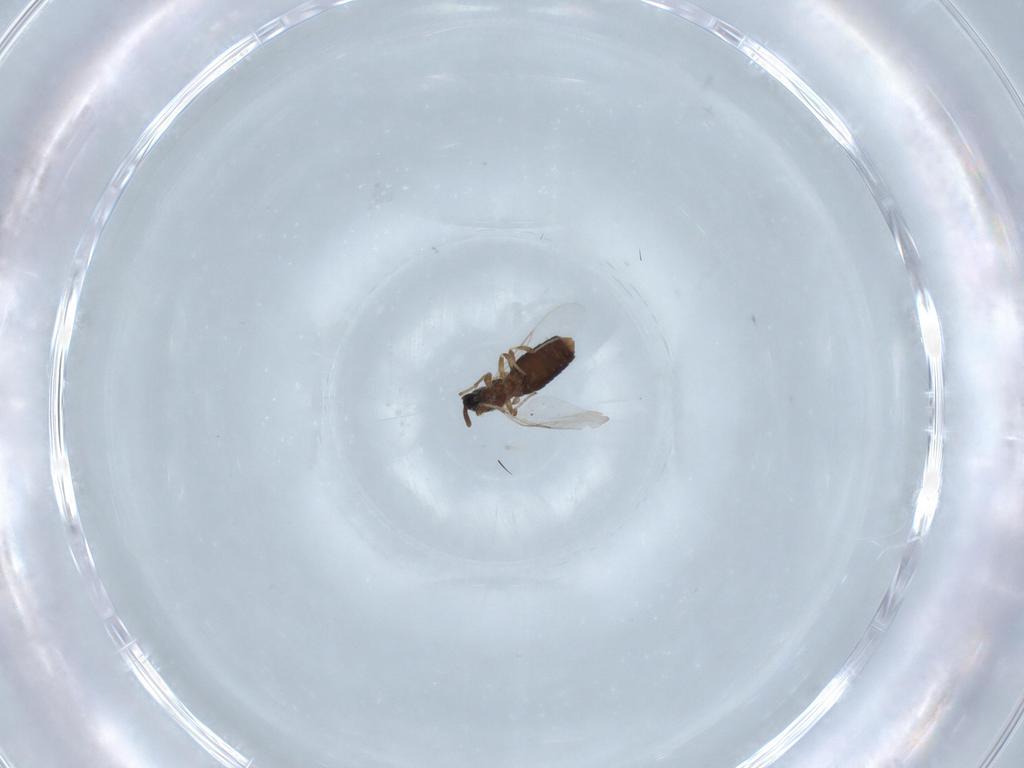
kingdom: Animalia
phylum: Arthropoda
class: Insecta
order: Diptera
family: Scatopsidae
